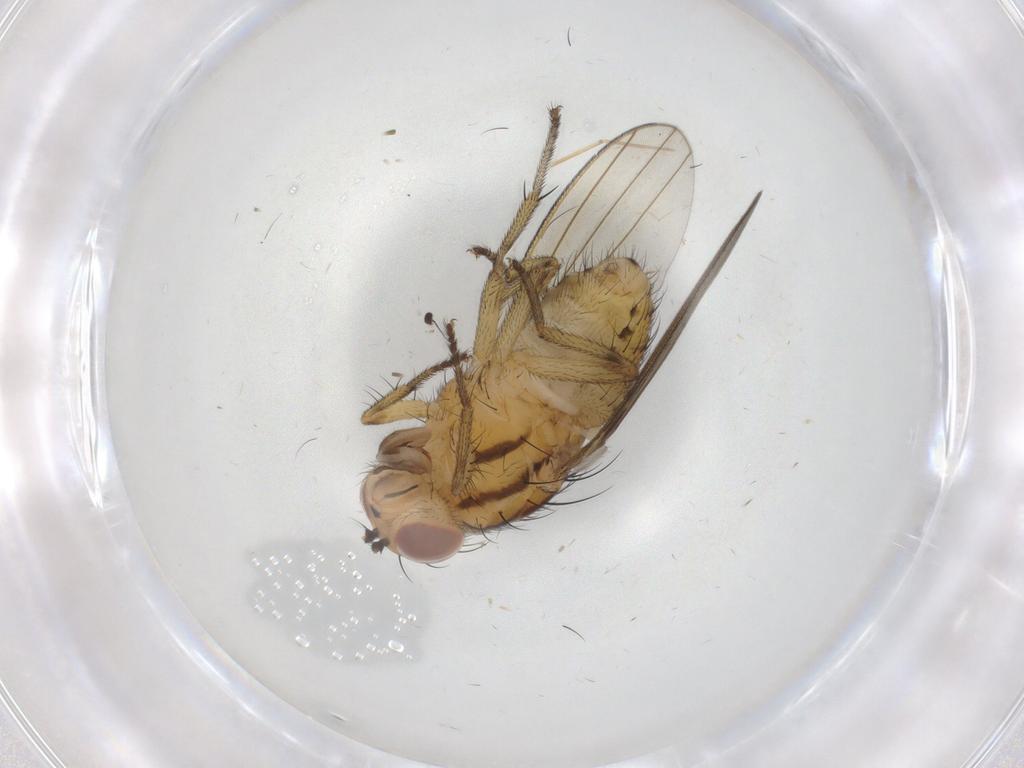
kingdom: Animalia
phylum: Arthropoda
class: Insecta
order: Diptera
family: Dolichopodidae
